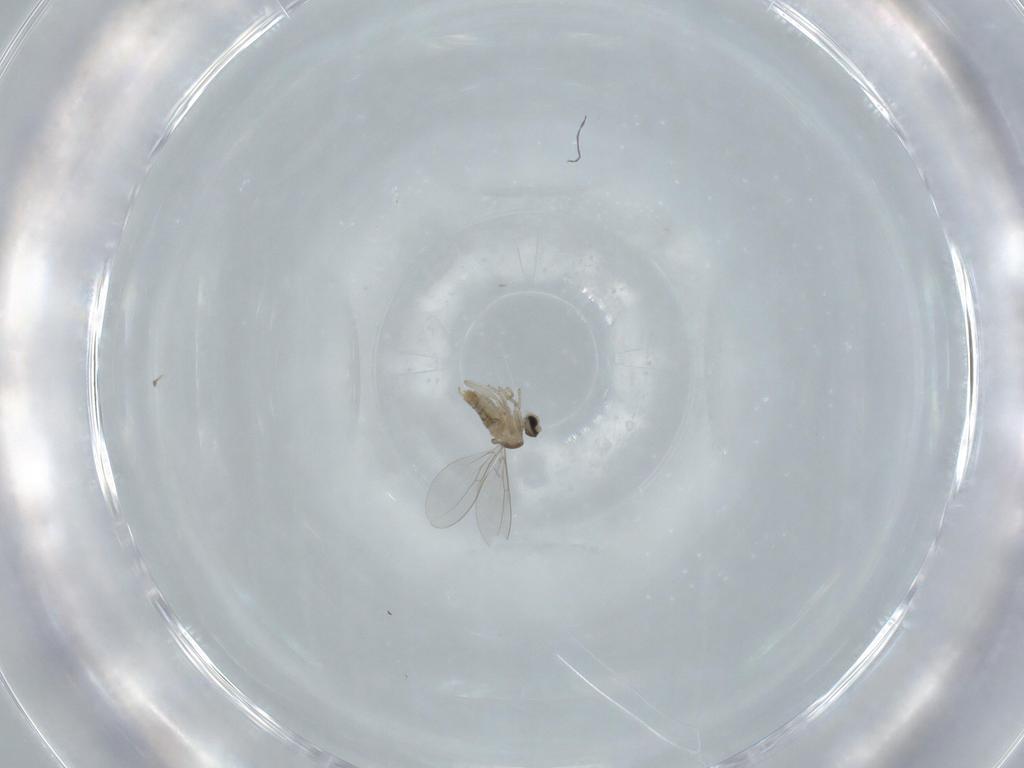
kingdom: Animalia
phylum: Arthropoda
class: Insecta
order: Diptera
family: Cecidomyiidae
